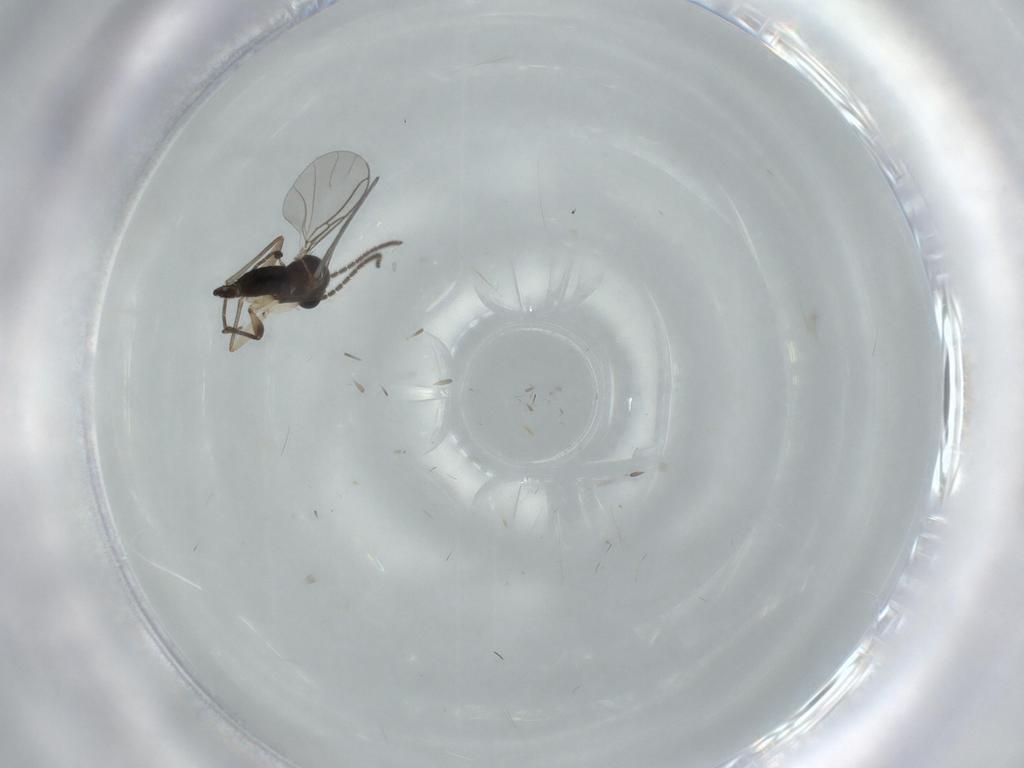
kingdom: Animalia
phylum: Arthropoda
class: Insecta
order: Diptera
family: Sciaridae
